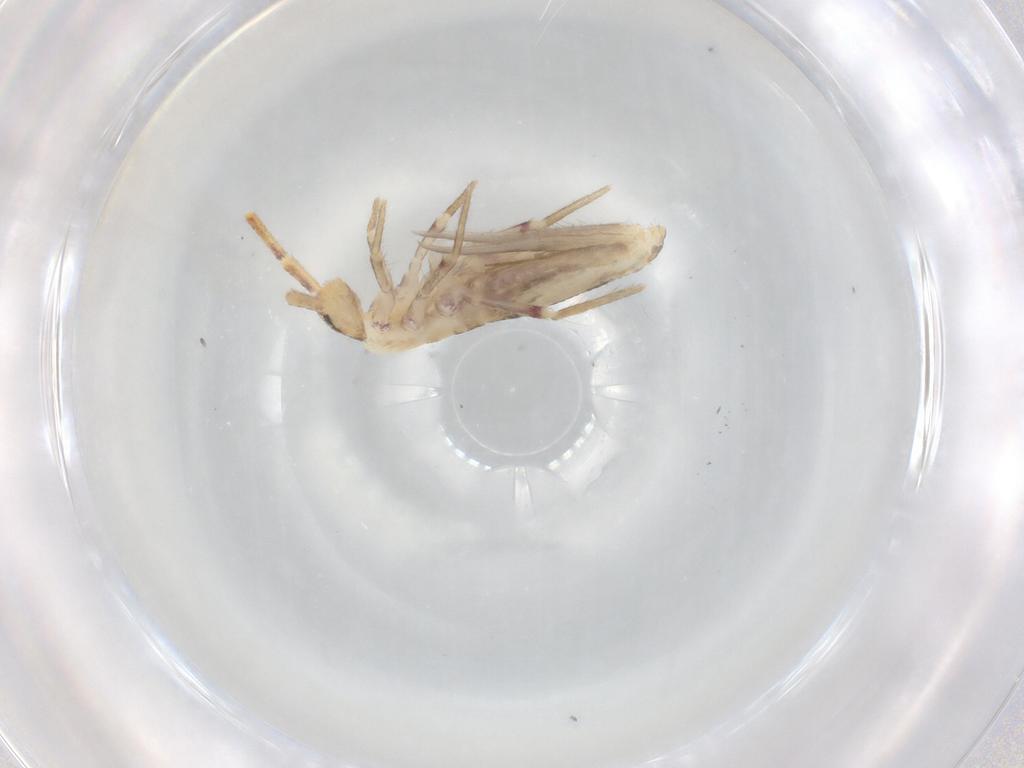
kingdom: Animalia
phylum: Arthropoda
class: Collembola
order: Poduromorpha
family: Hypogastruridae
